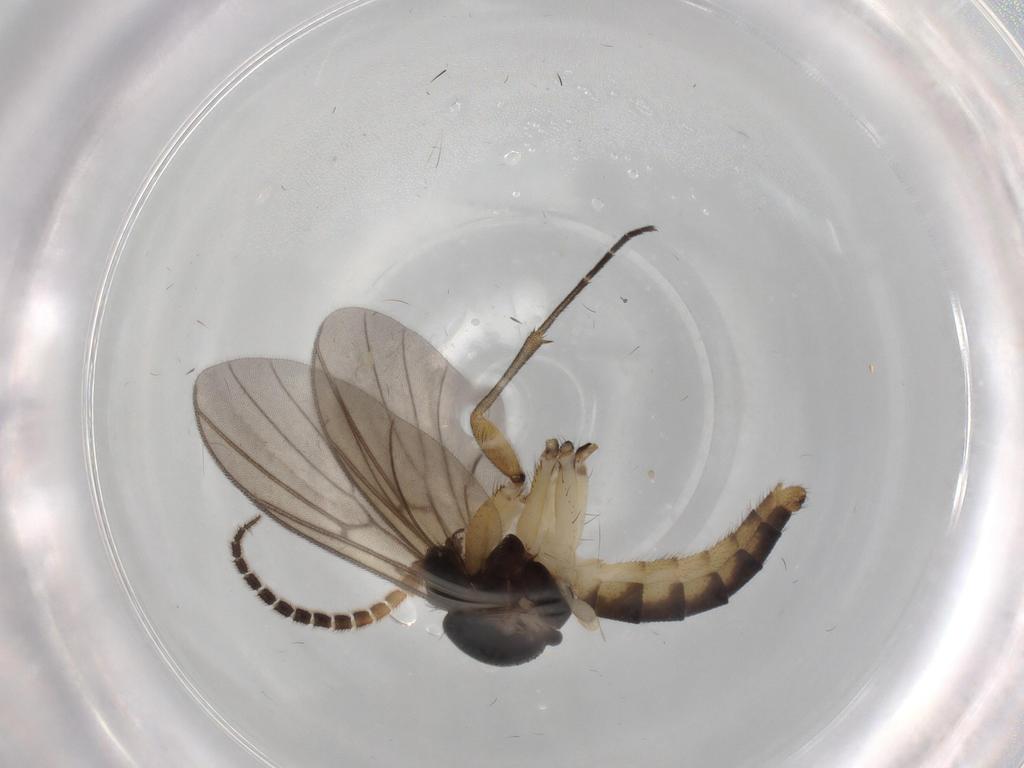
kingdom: Animalia
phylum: Arthropoda
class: Insecta
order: Diptera
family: Sphaeroceridae
